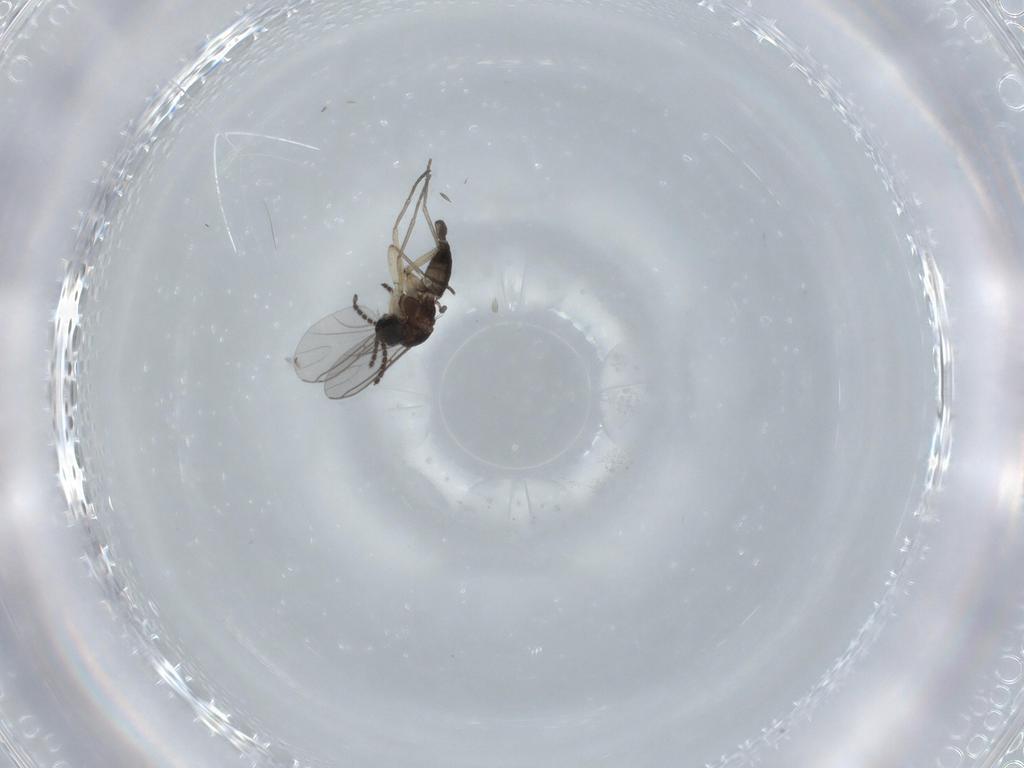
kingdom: Animalia
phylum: Arthropoda
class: Insecta
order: Diptera
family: Sciaridae
